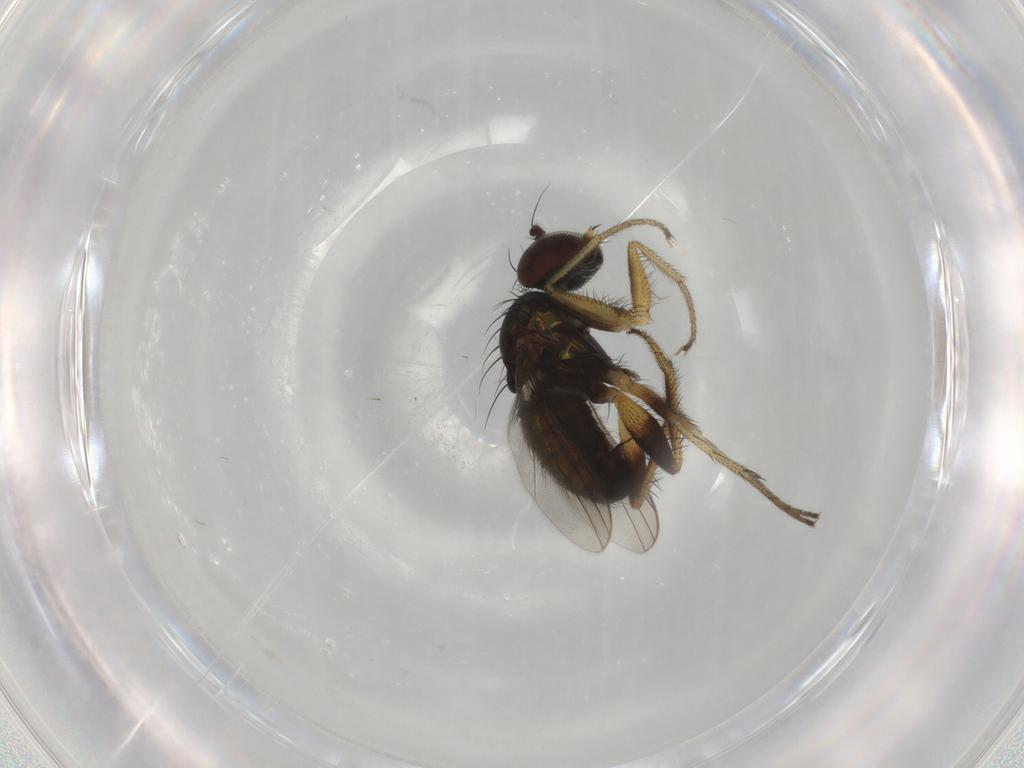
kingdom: Animalia
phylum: Arthropoda
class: Insecta
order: Diptera
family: Dolichopodidae
